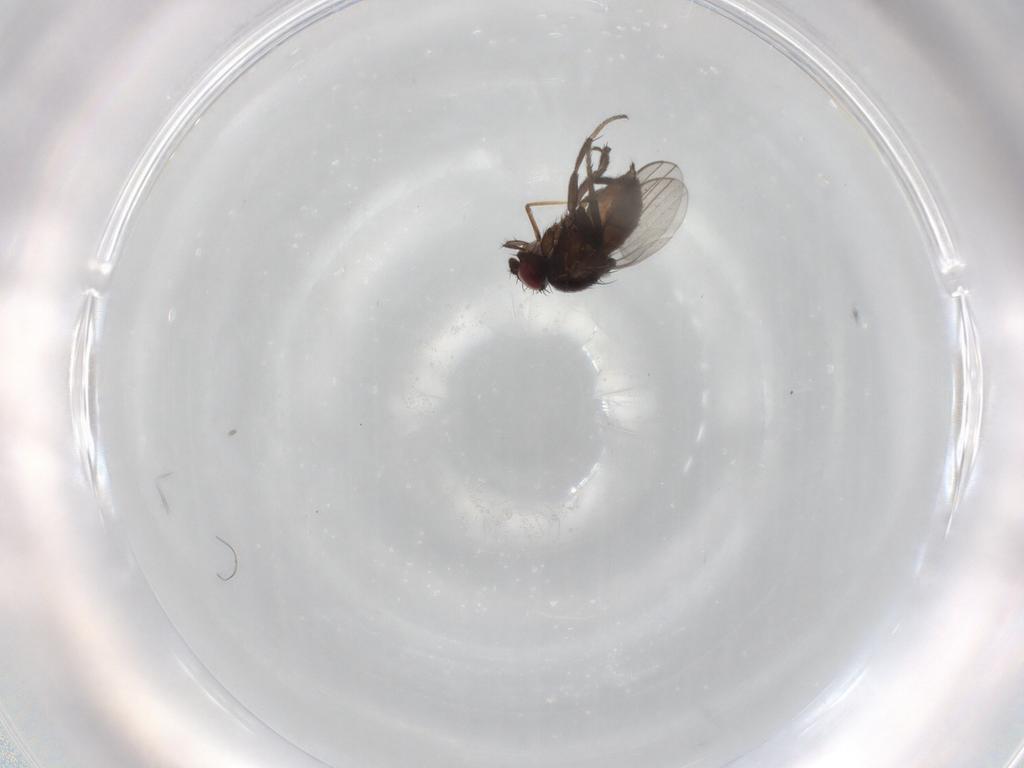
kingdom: Animalia
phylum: Arthropoda
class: Insecta
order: Diptera
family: Milichiidae
